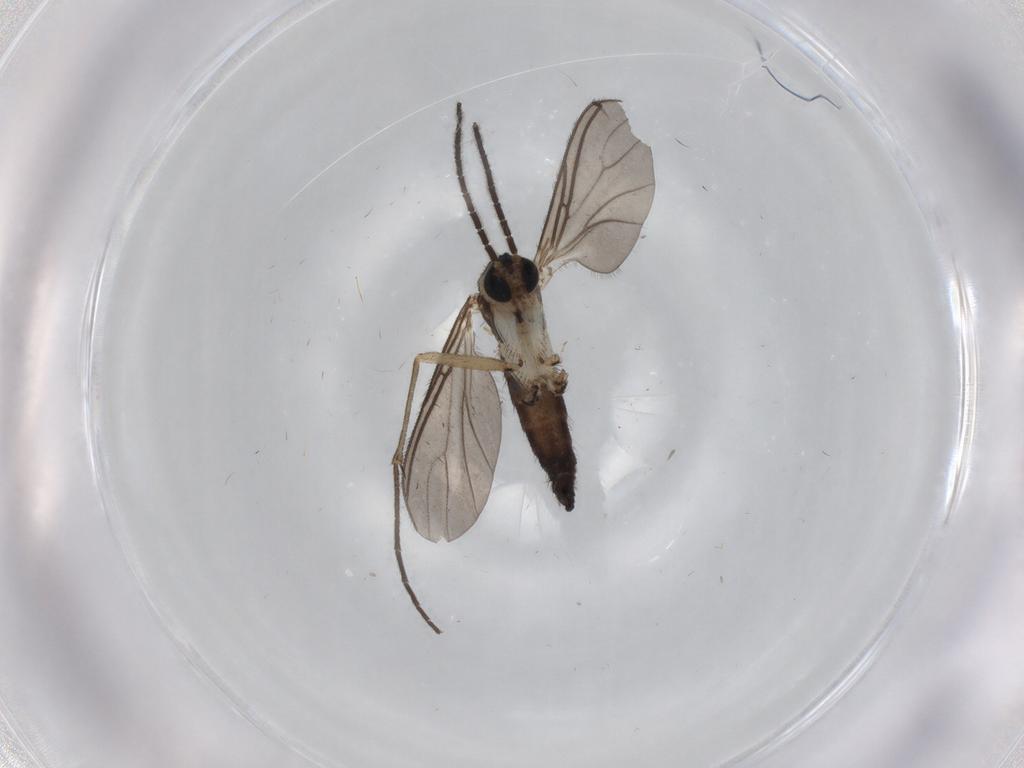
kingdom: Animalia
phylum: Arthropoda
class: Insecta
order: Diptera
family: Sciaridae
